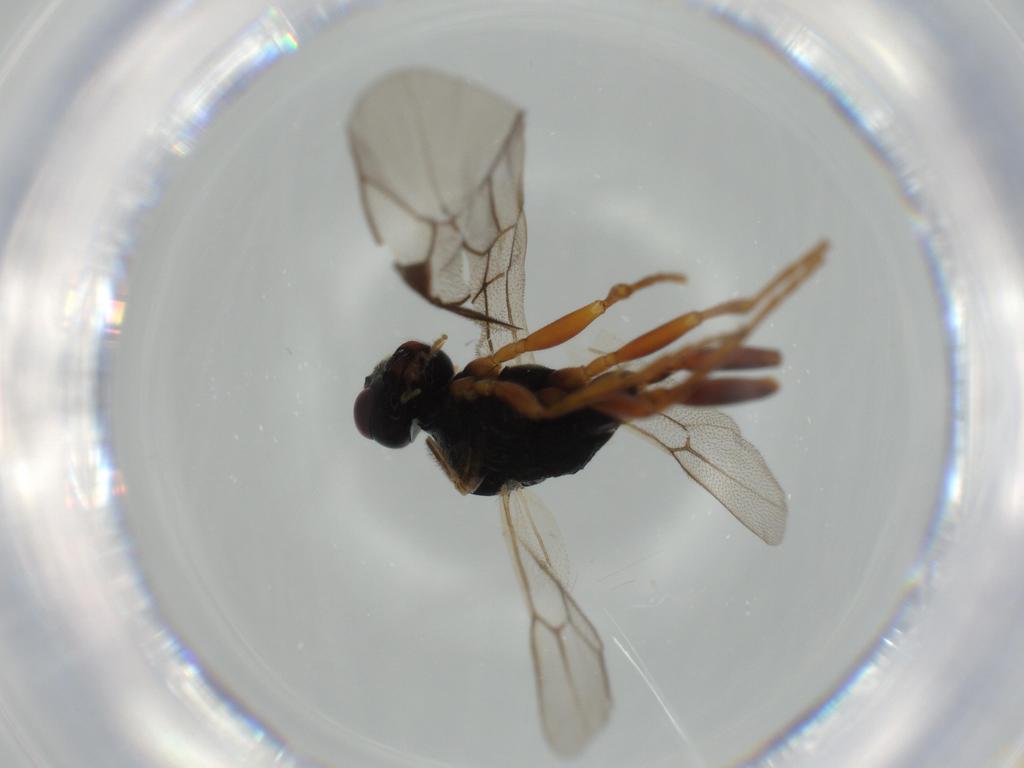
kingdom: Animalia
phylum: Arthropoda
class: Insecta
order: Hymenoptera
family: Ichneumonidae
